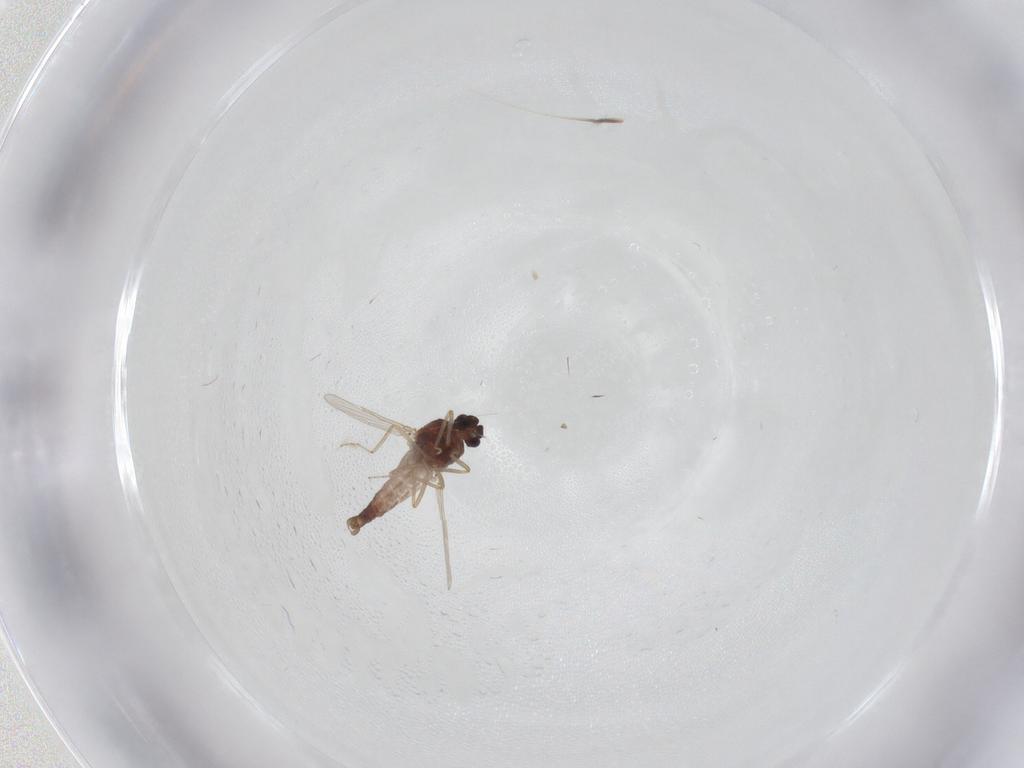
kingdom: Animalia
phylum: Arthropoda
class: Insecta
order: Diptera
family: Ceratopogonidae
